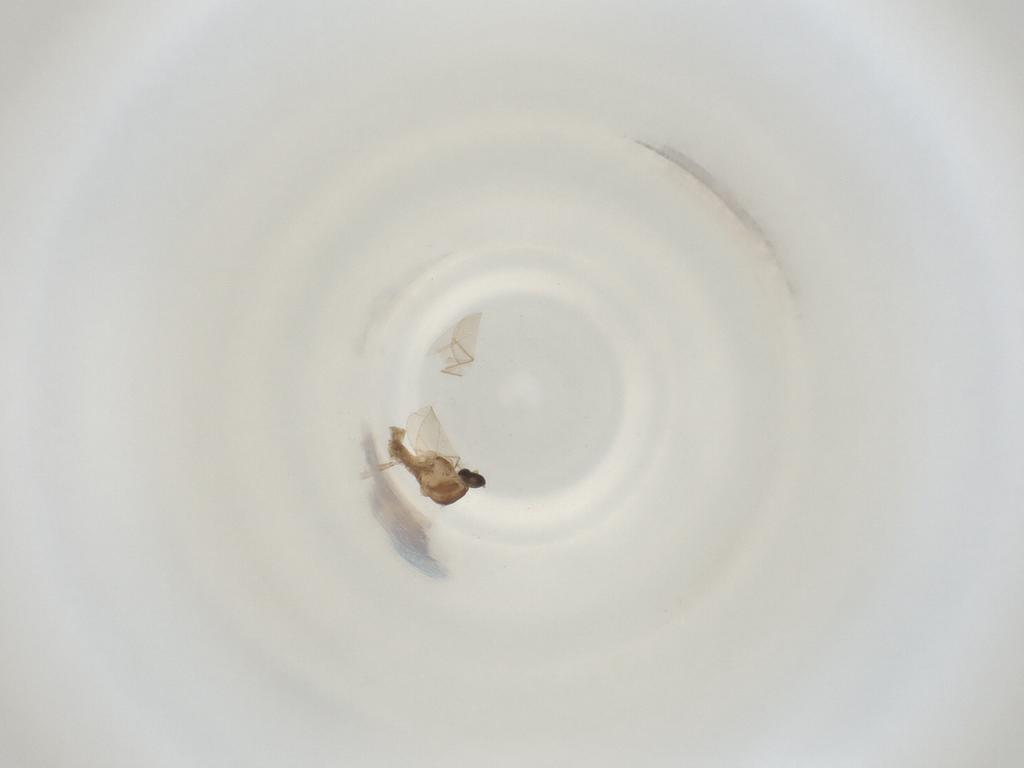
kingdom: Animalia
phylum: Arthropoda
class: Insecta
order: Diptera
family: Cecidomyiidae
